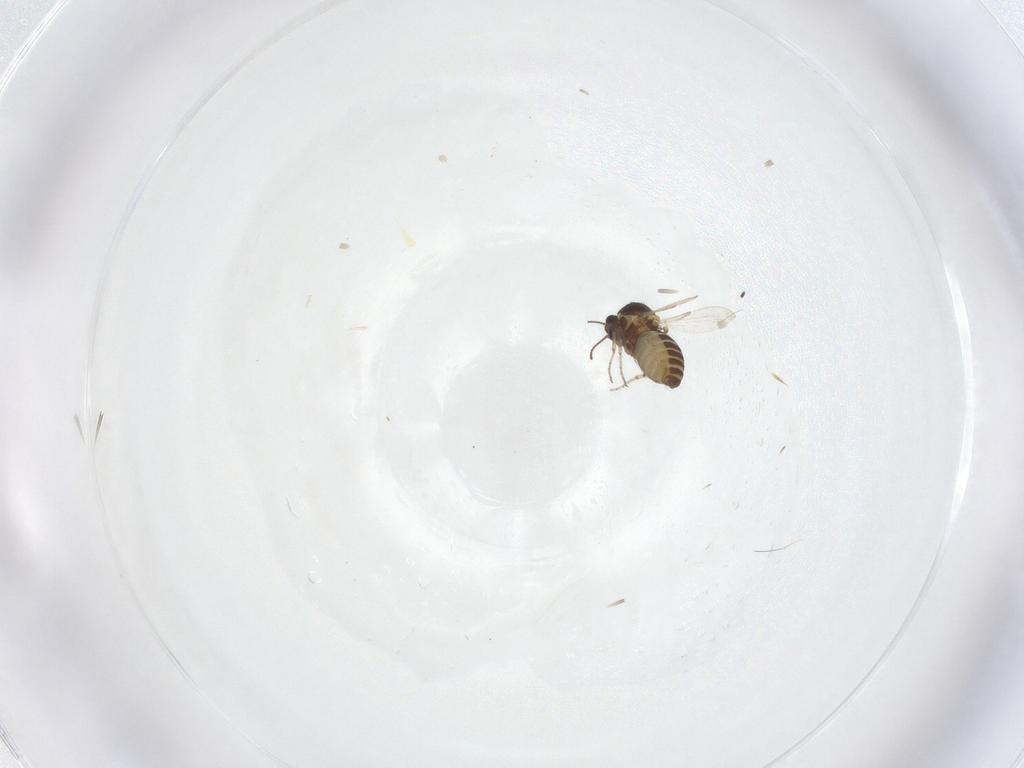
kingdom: Animalia
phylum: Arthropoda
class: Insecta
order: Diptera
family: Ceratopogonidae
